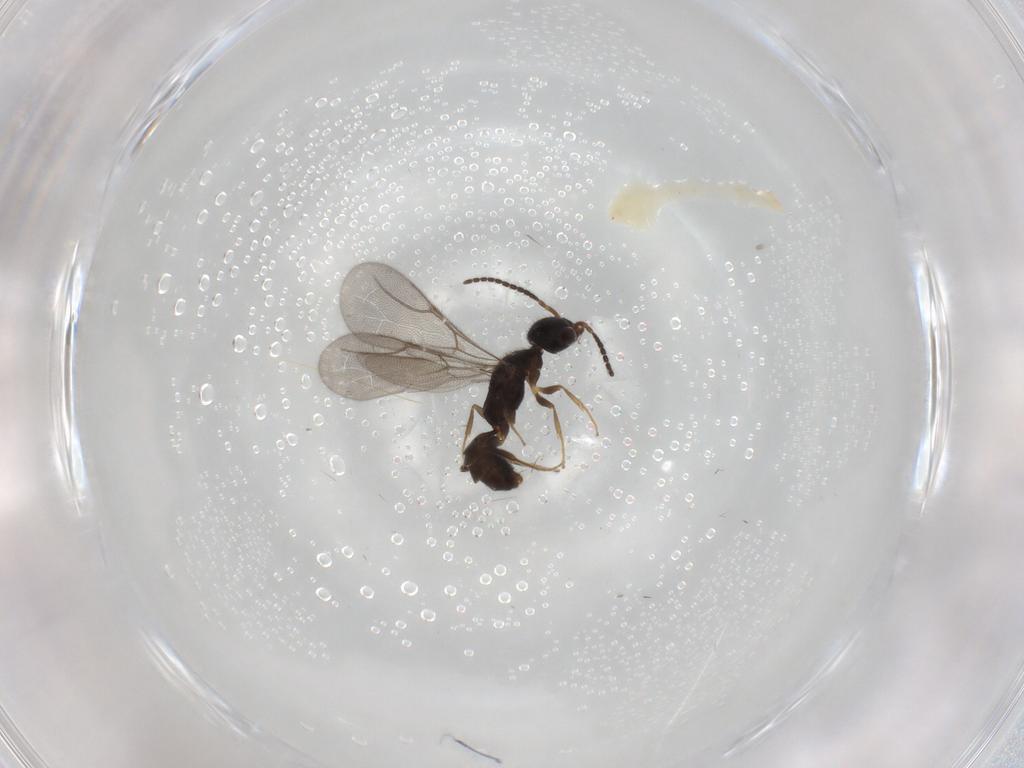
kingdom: Animalia
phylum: Arthropoda
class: Insecta
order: Hymenoptera
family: Bethylidae
